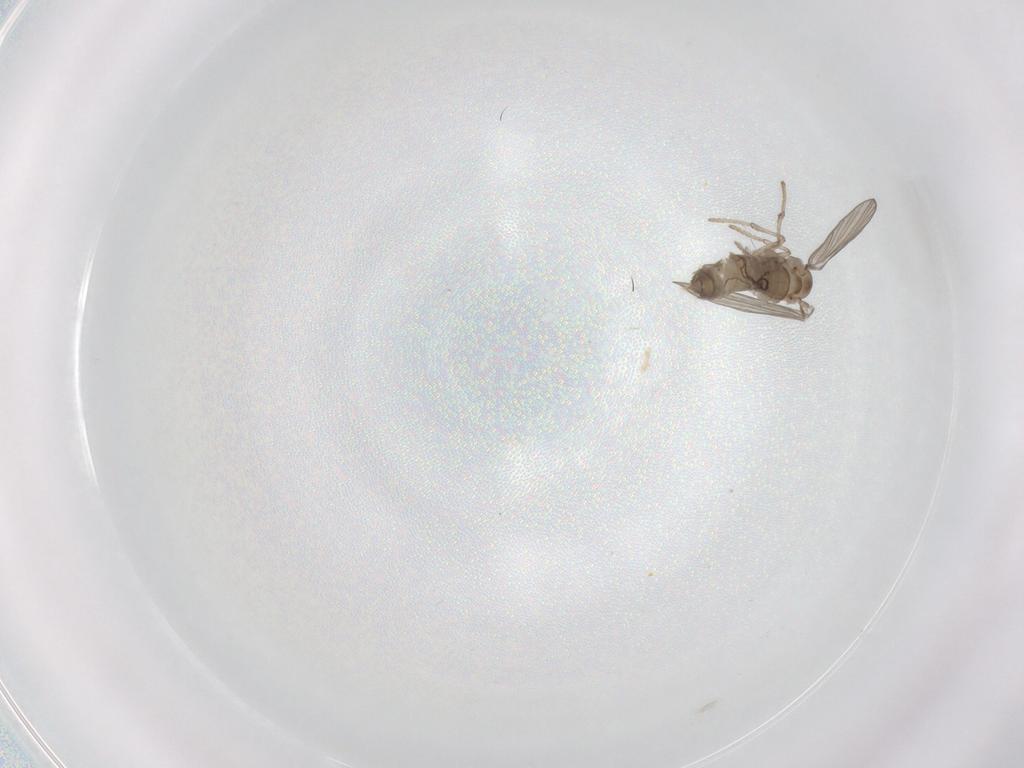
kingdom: Animalia
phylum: Arthropoda
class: Insecta
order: Diptera
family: Psychodidae
